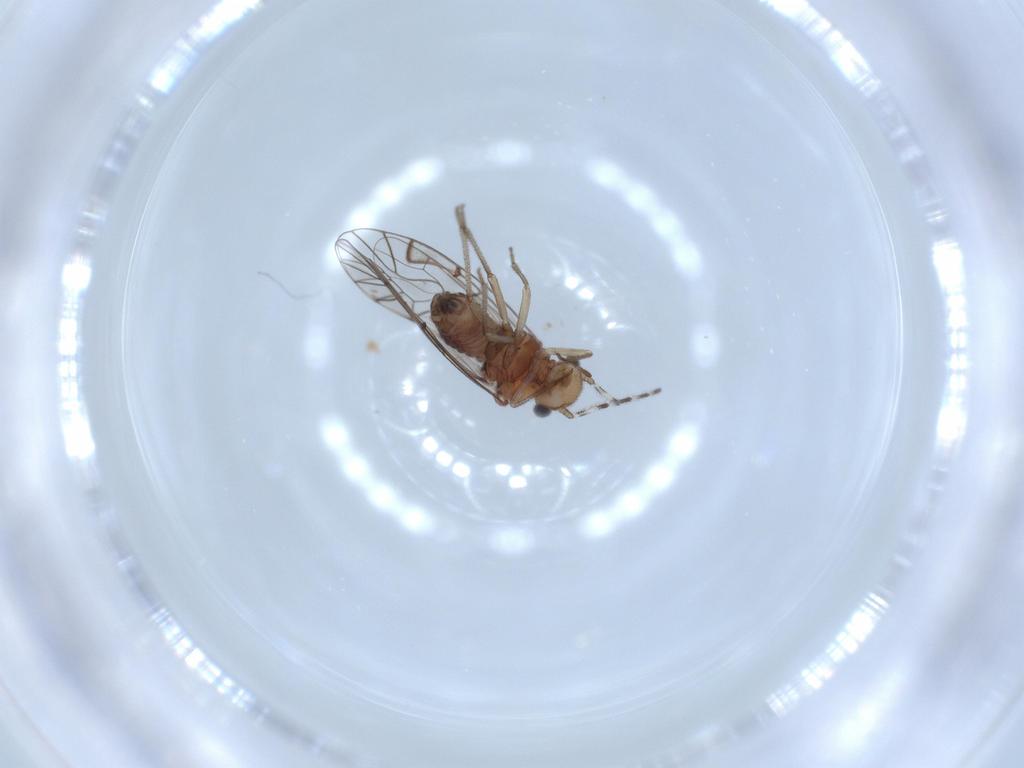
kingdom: Animalia
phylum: Arthropoda
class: Insecta
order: Psocodea
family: Amphipsocidae
